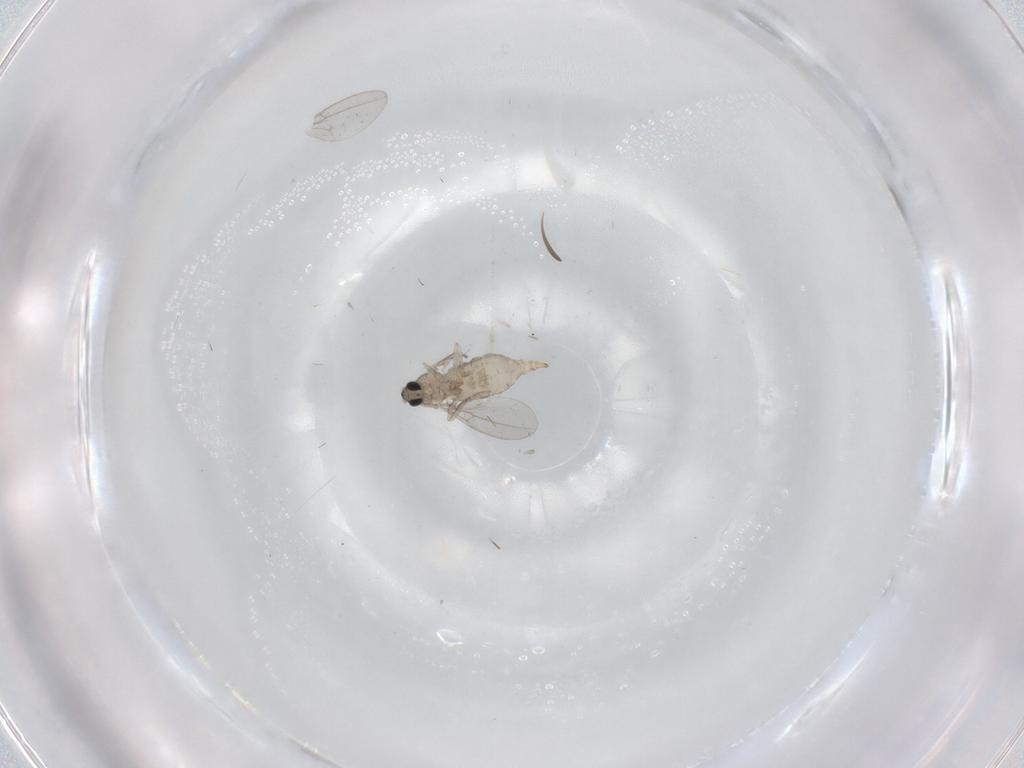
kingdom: Animalia
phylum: Arthropoda
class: Insecta
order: Diptera
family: Cecidomyiidae
